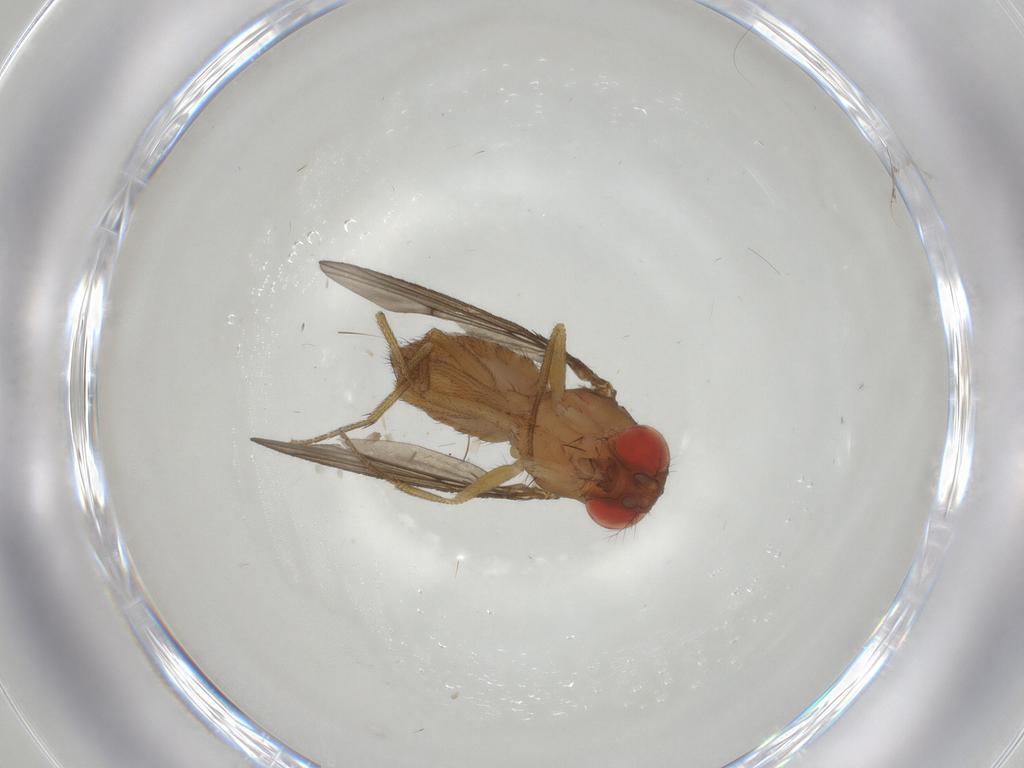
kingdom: Animalia
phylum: Arthropoda
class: Insecta
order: Diptera
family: Drosophilidae
